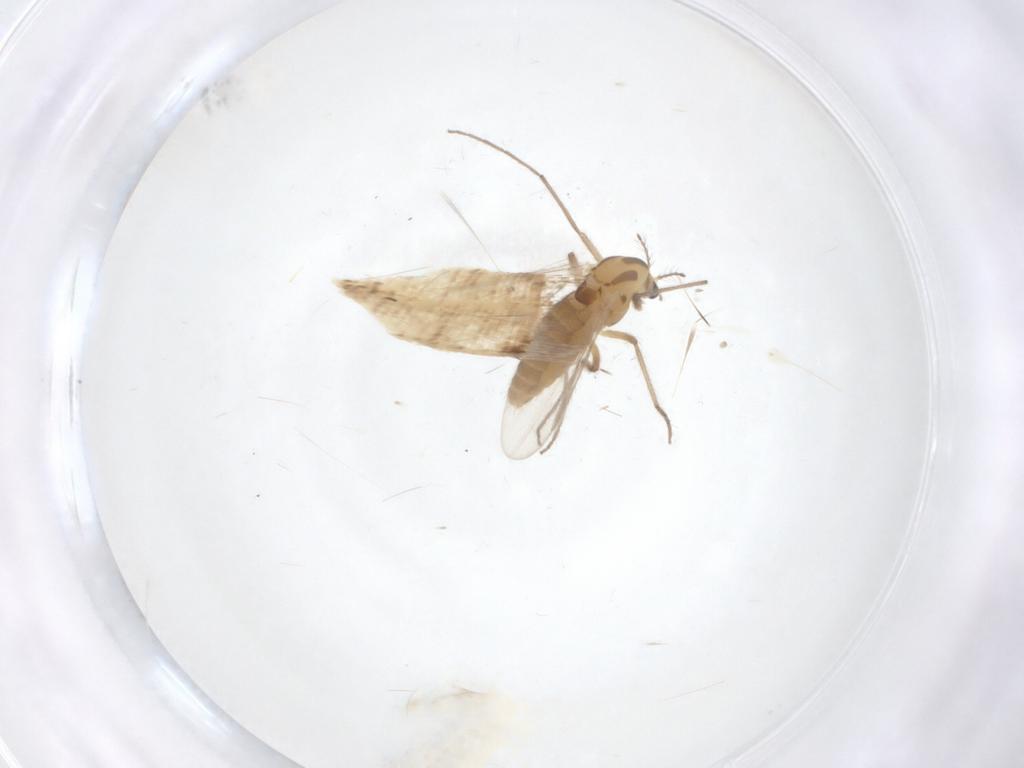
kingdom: Animalia
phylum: Arthropoda
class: Insecta
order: Diptera
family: Chironomidae
